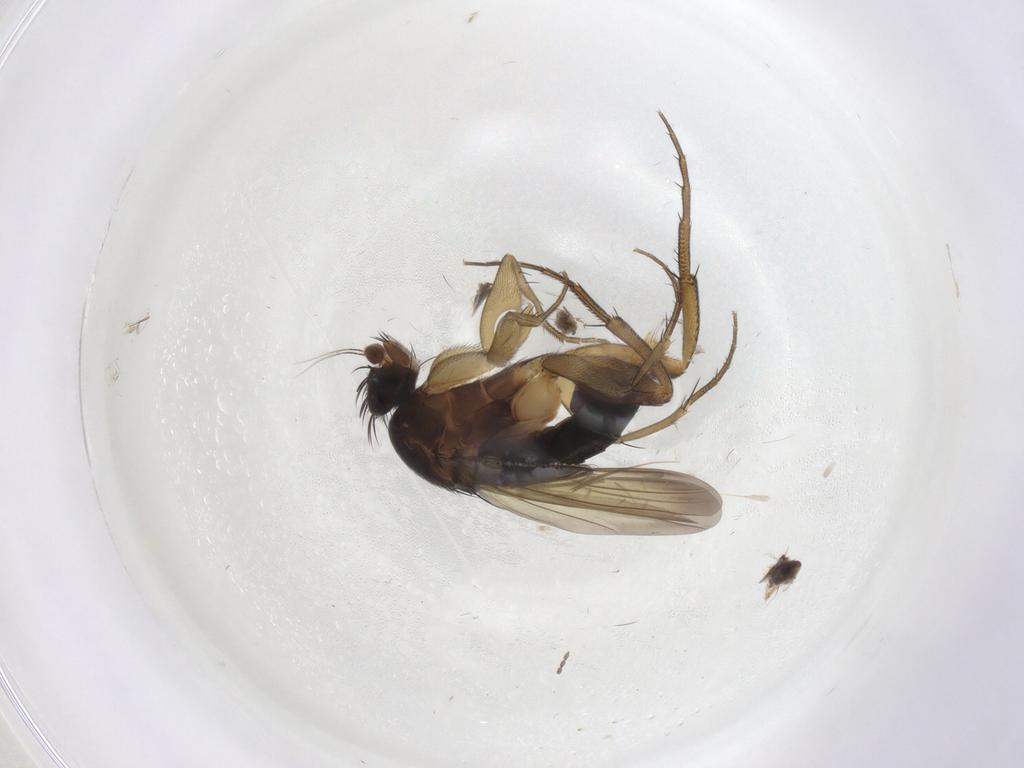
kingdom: Animalia
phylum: Arthropoda
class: Insecta
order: Diptera
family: Phoridae
